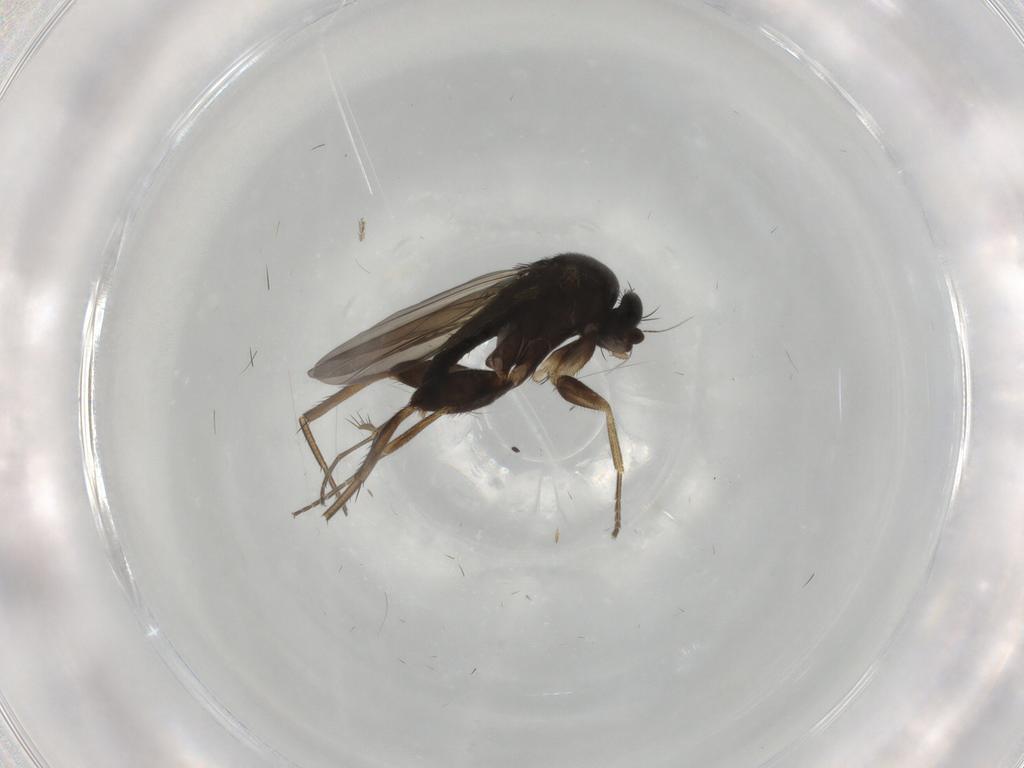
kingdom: Animalia
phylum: Arthropoda
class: Insecta
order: Diptera
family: Phoridae
